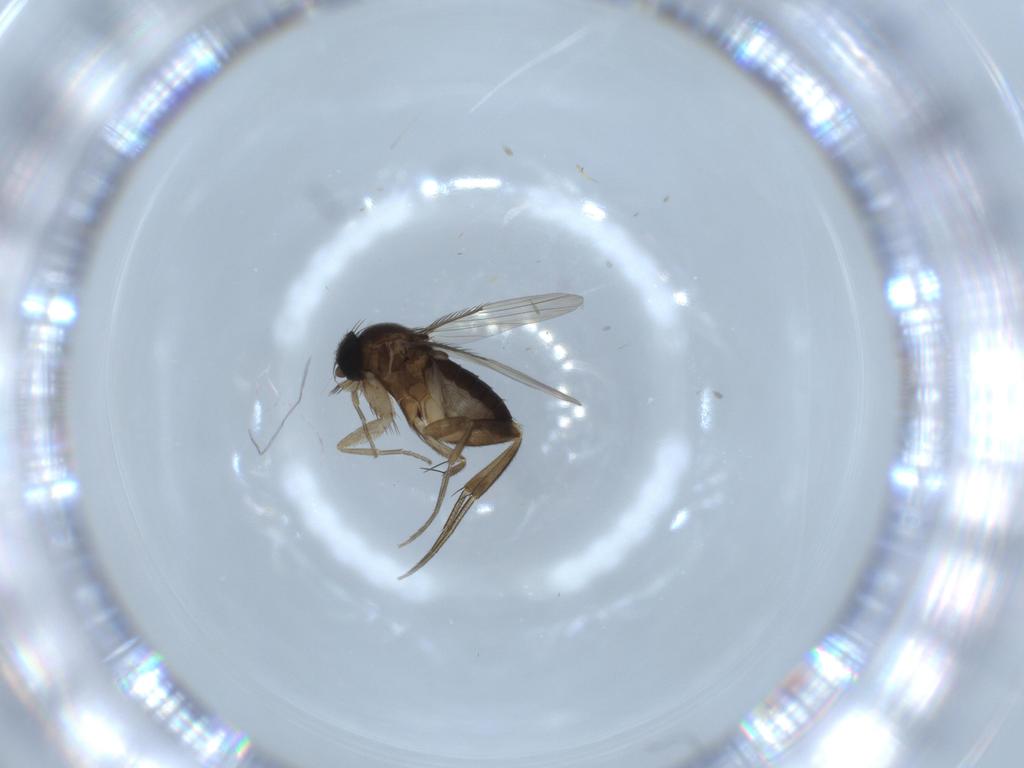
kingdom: Animalia
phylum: Arthropoda
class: Insecta
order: Diptera
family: Phoridae
